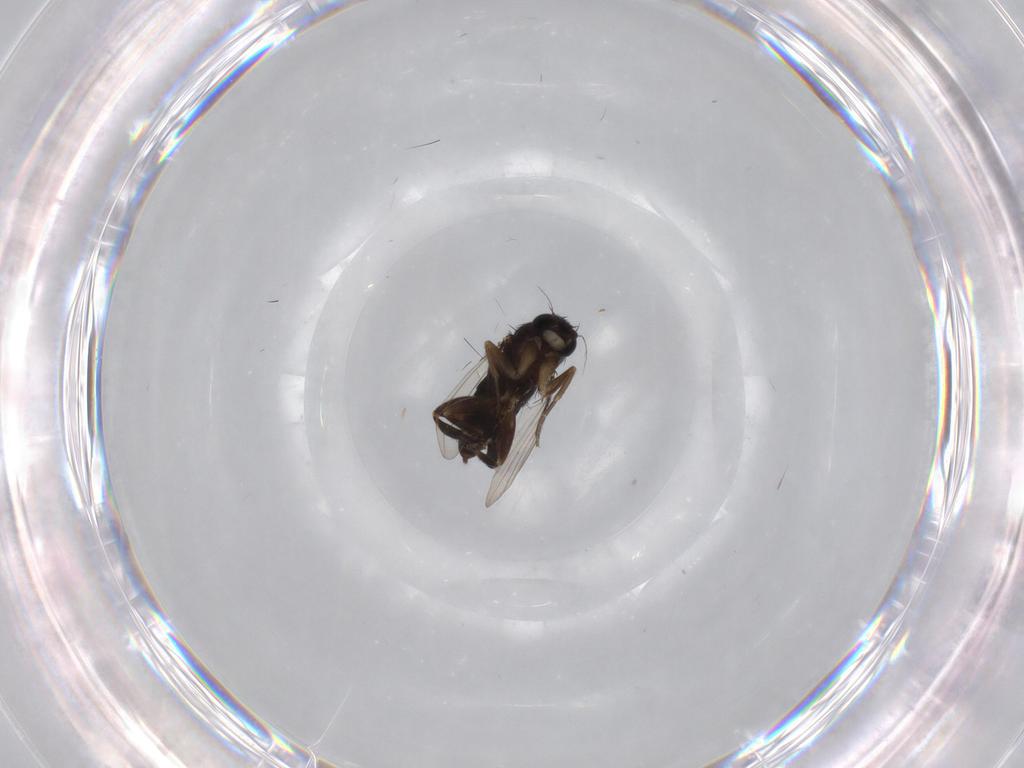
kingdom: Animalia
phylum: Arthropoda
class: Insecta
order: Diptera
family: Phoridae
